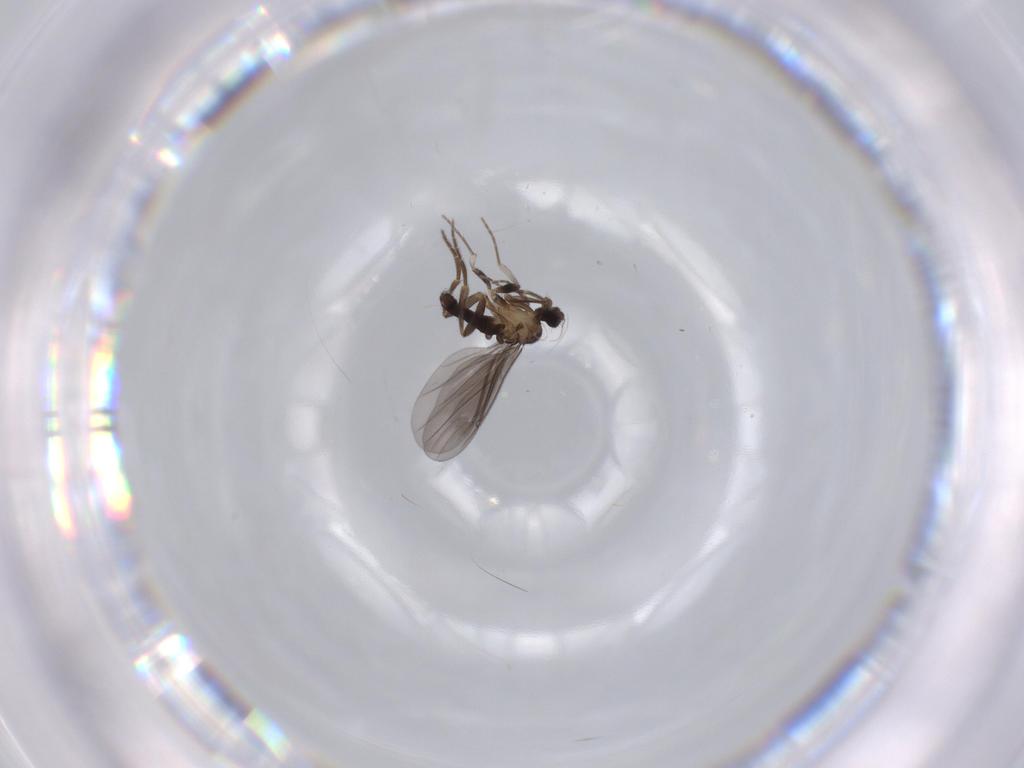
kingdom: Animalia
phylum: Arthropoda
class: Insecta
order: Diptera
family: Phoridae
